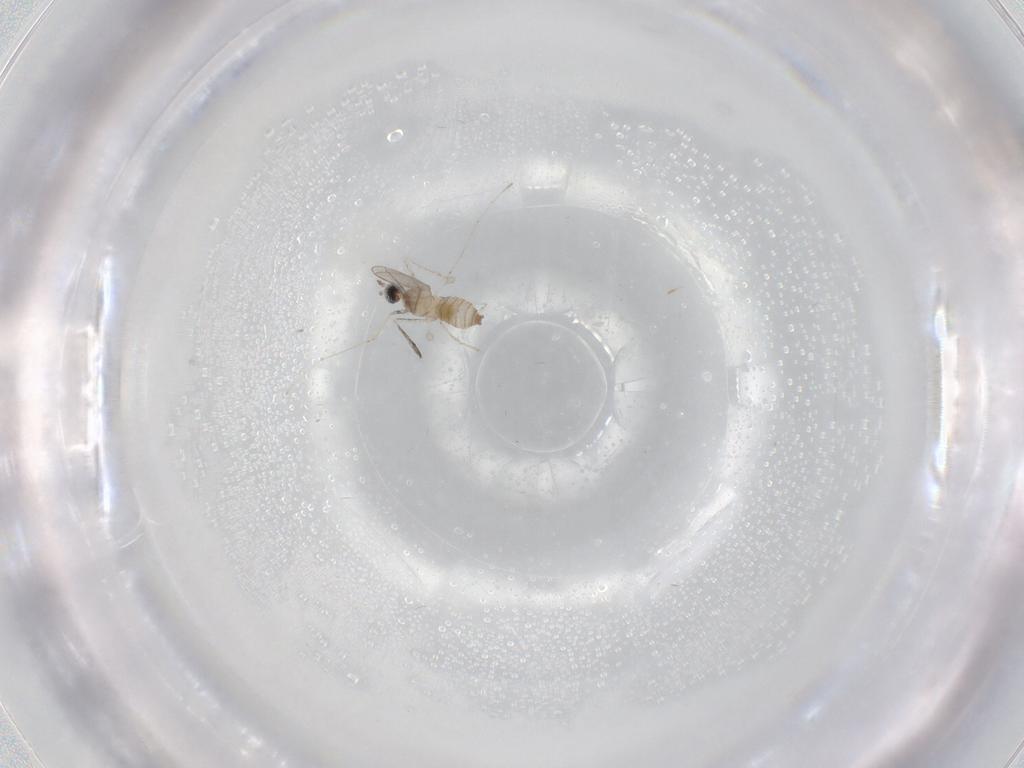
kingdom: Animalia
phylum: Arthropoda
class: Insecta
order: Diptera
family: Cecidomyiidae
